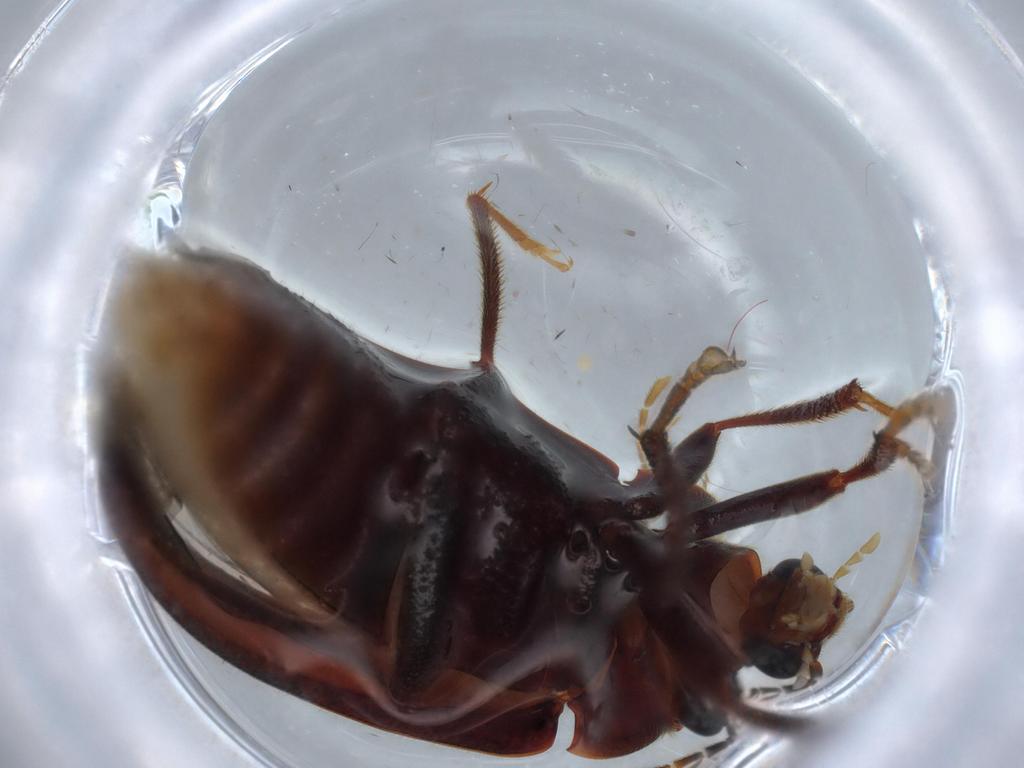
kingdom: Animalia
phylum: Arthropoda
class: Insecta
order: Coleoptera
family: Ptilodactylidae
